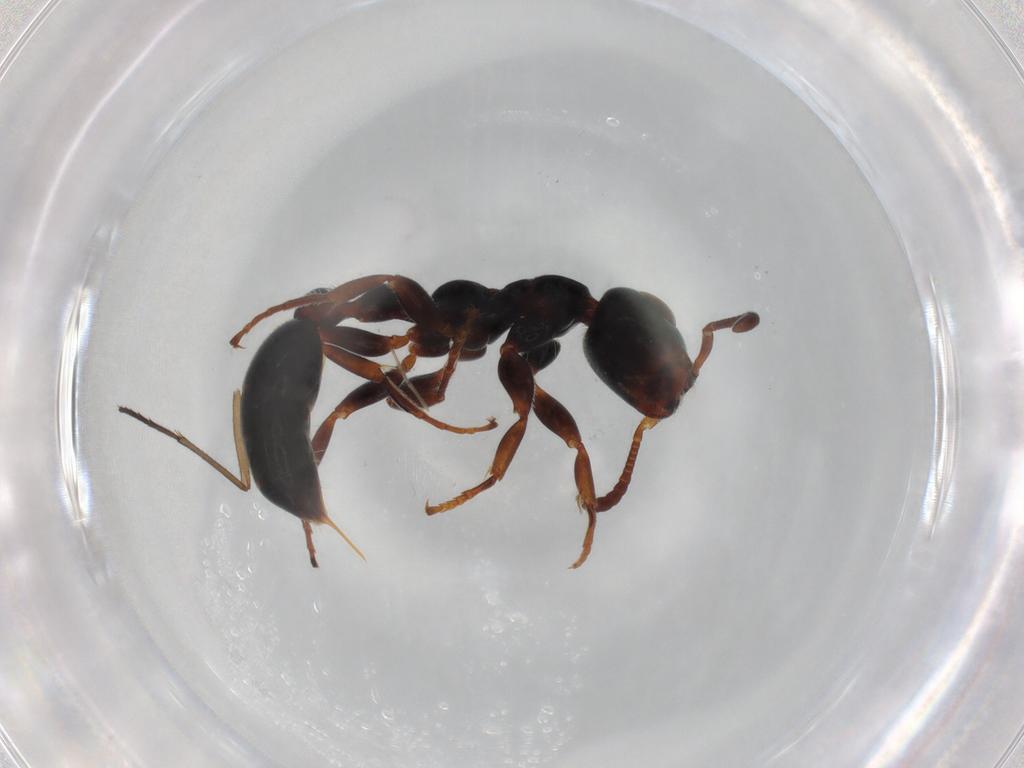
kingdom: Animalia
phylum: Arthropoda
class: Insecta
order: Hymenoptera
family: Formicidae
